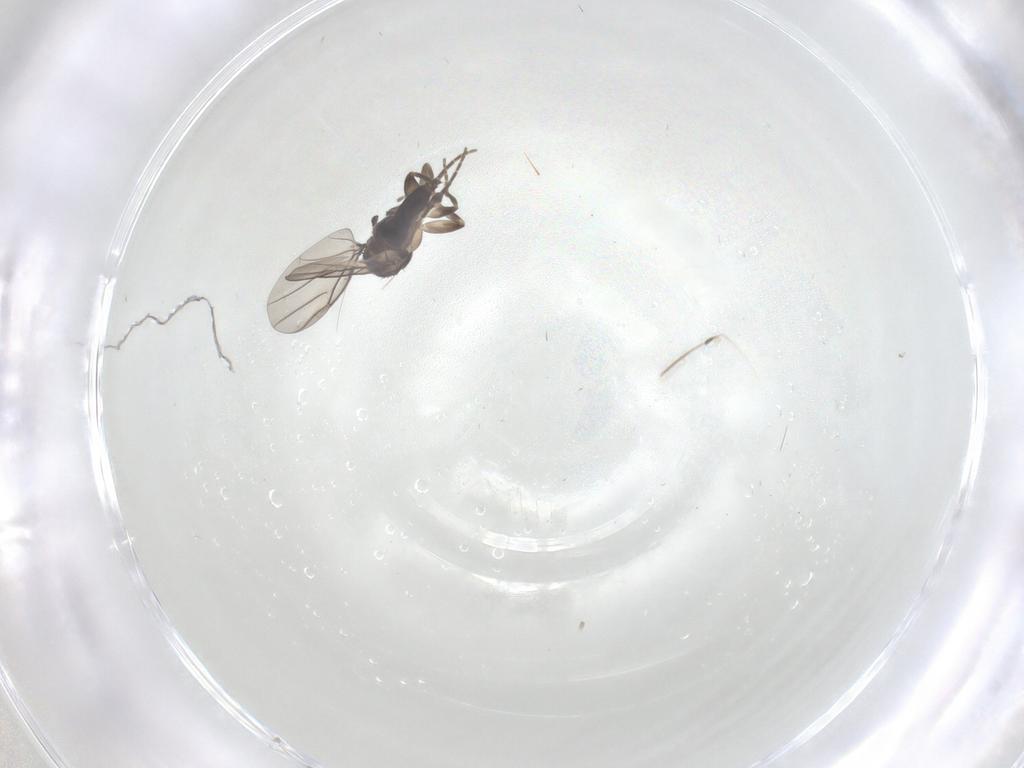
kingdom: Animalia
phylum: Arthropoda
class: Insecta
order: Diptera
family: Phoridae
